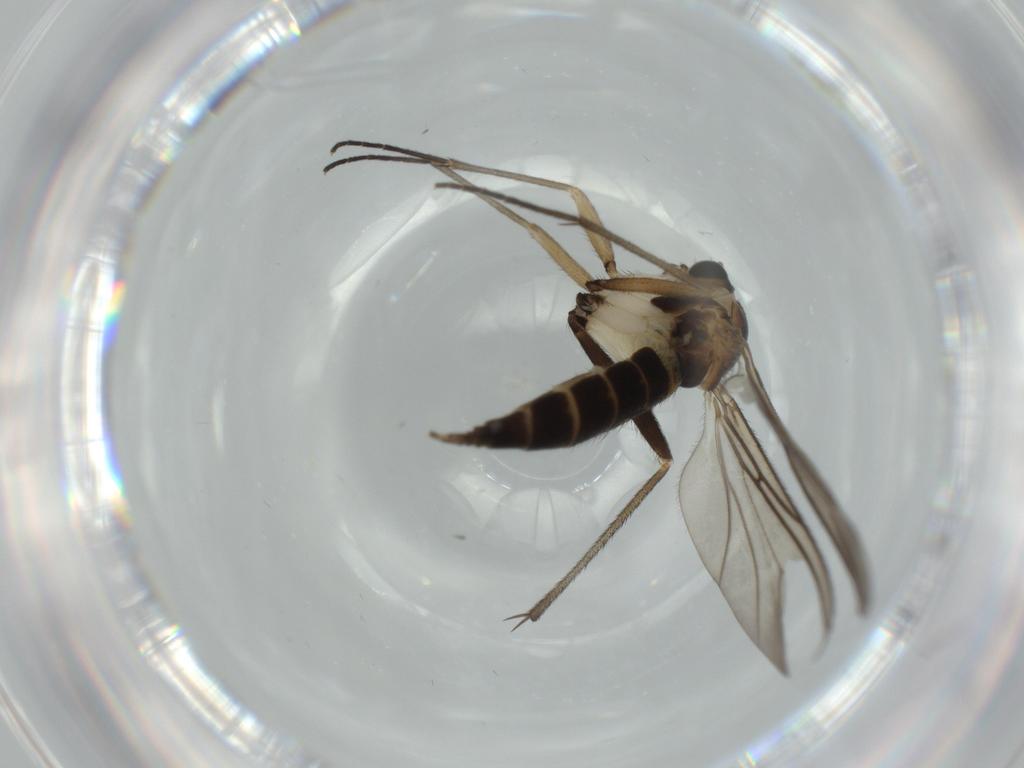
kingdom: Animalia
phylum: Arthropoda
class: Insecta
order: Diptera
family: Sciaridae
